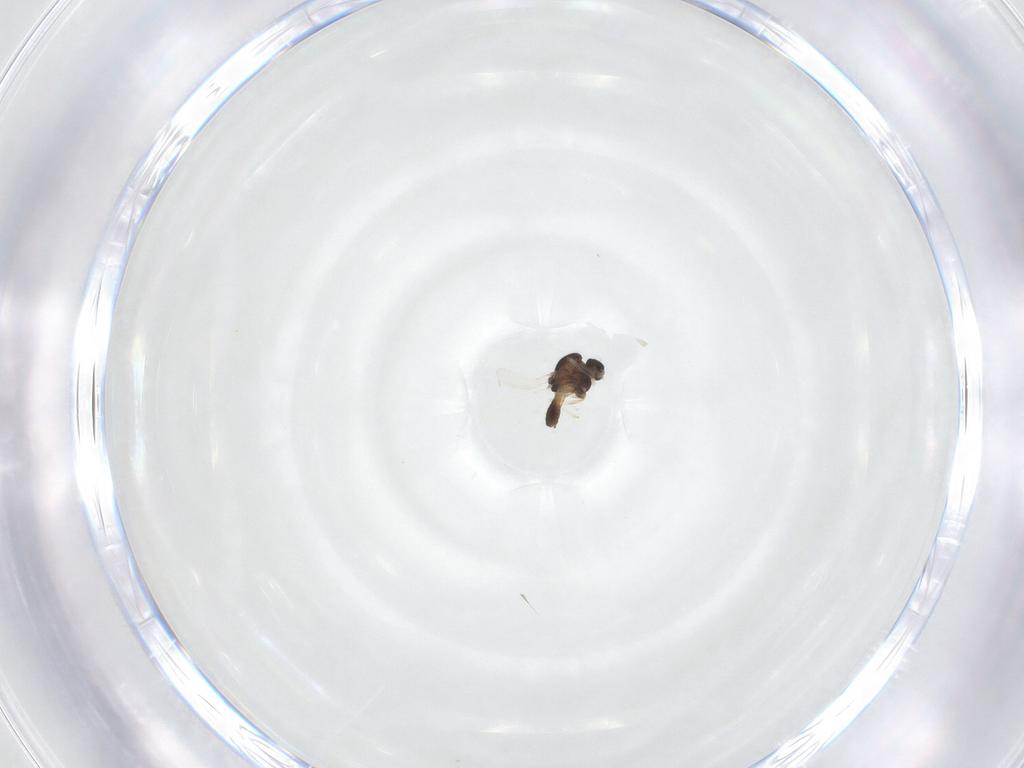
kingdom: Animalia
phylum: Arthropoda
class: Insecta
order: Diptera
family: Chironomidae
